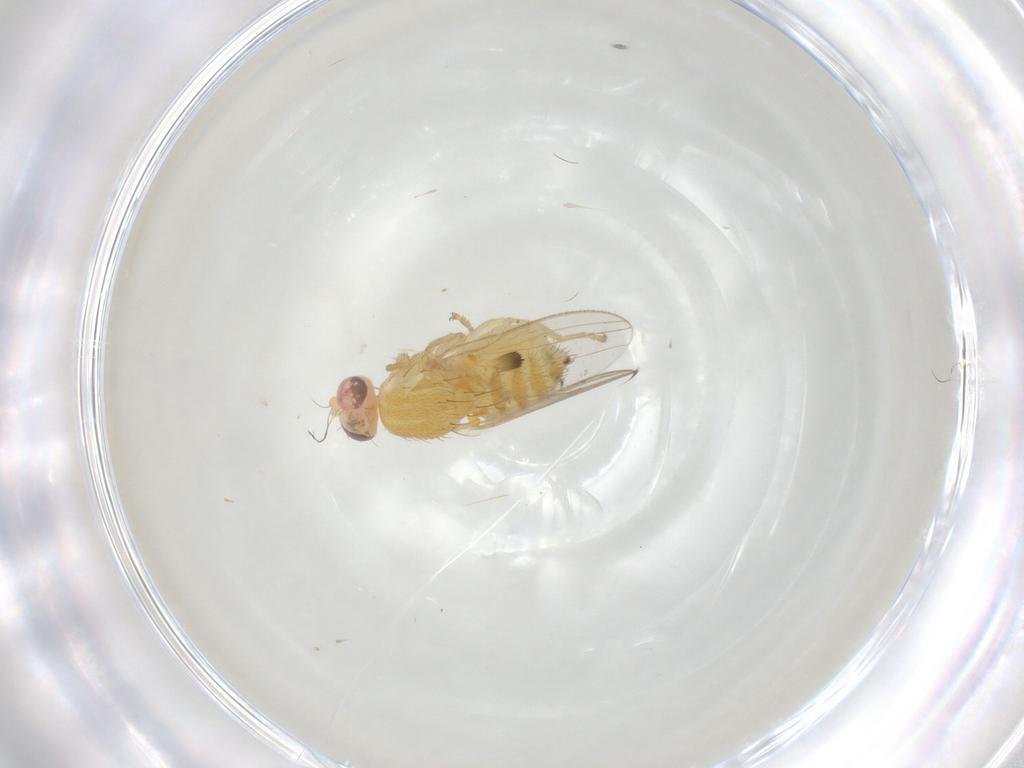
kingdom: Animalia
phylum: Arthropoda
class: Insecta
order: Diptera
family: Chyromyidae
